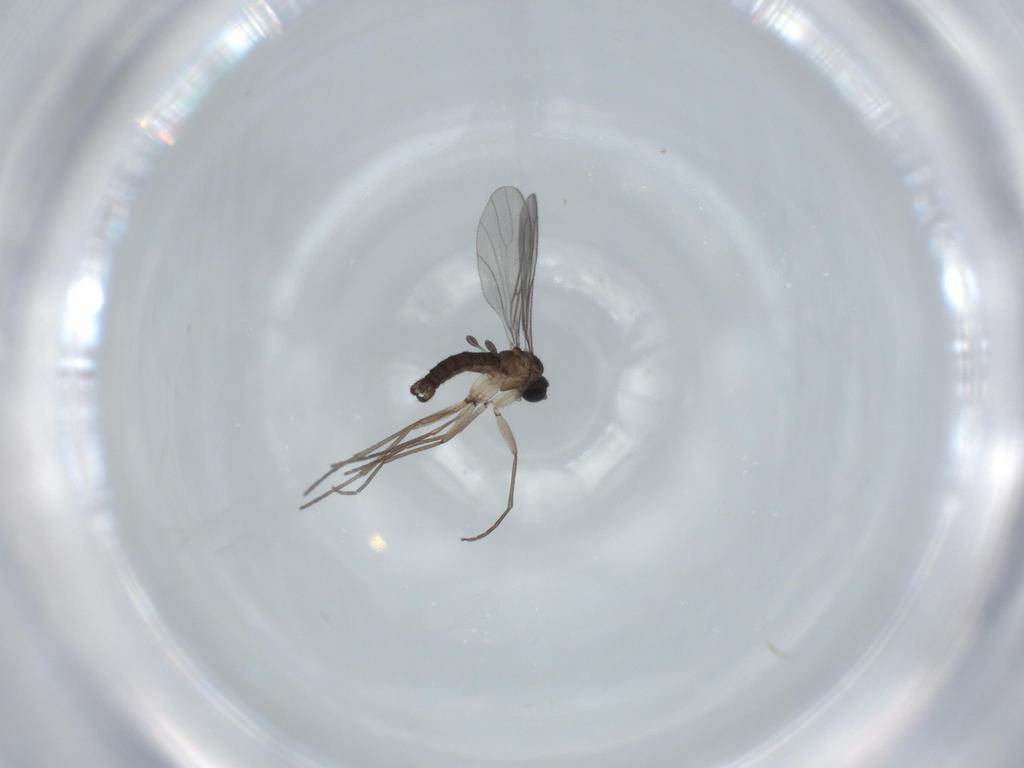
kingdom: Animalia
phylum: Arthropoda
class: Insecta
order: Diptera
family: Sciaridae
